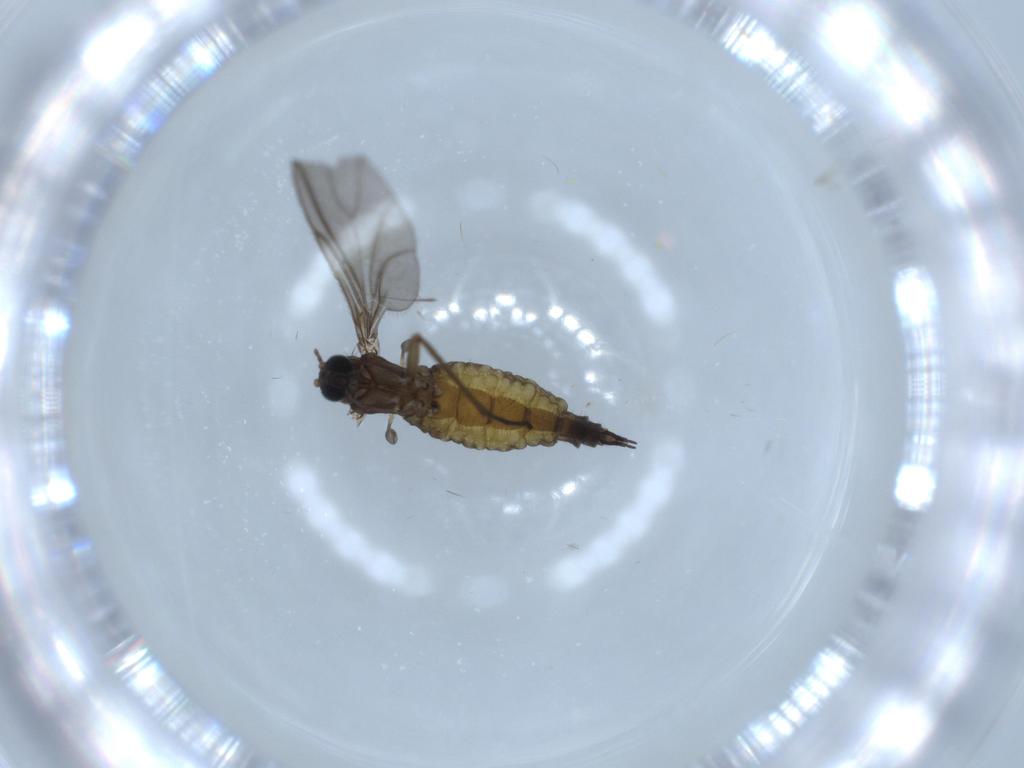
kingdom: Animalia
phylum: Arthropoda
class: Insecta
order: Diptera
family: Sciaridae
